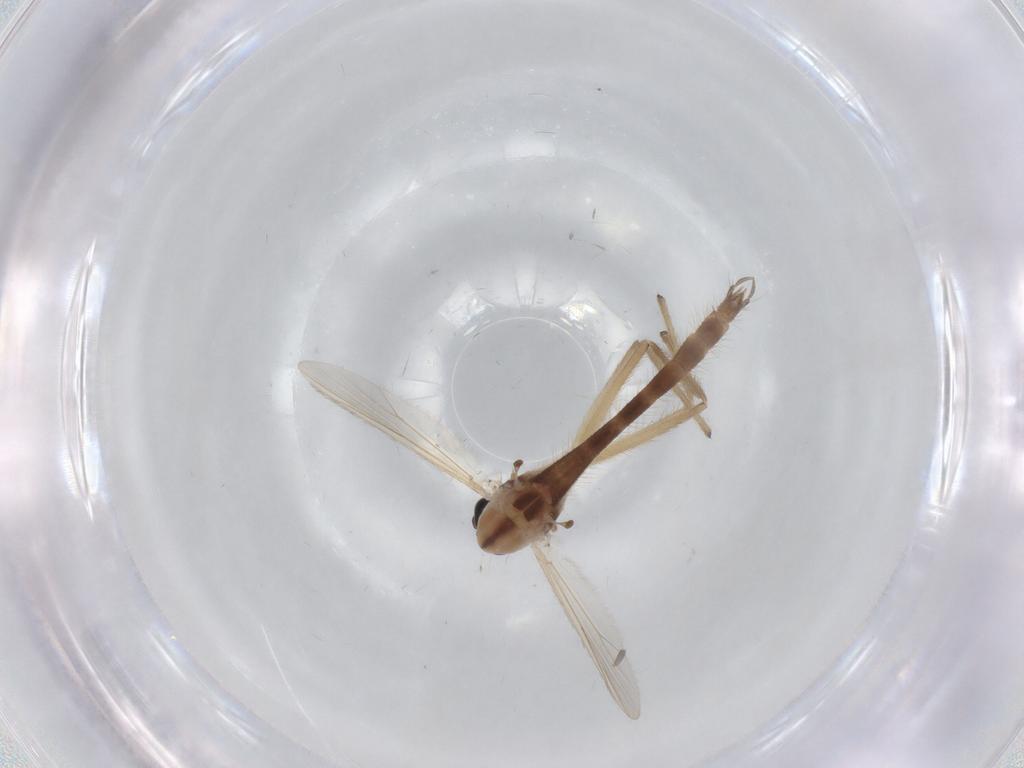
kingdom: Animalia
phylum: Arthropoda
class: Insecta
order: Diptera
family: Chironomidae
